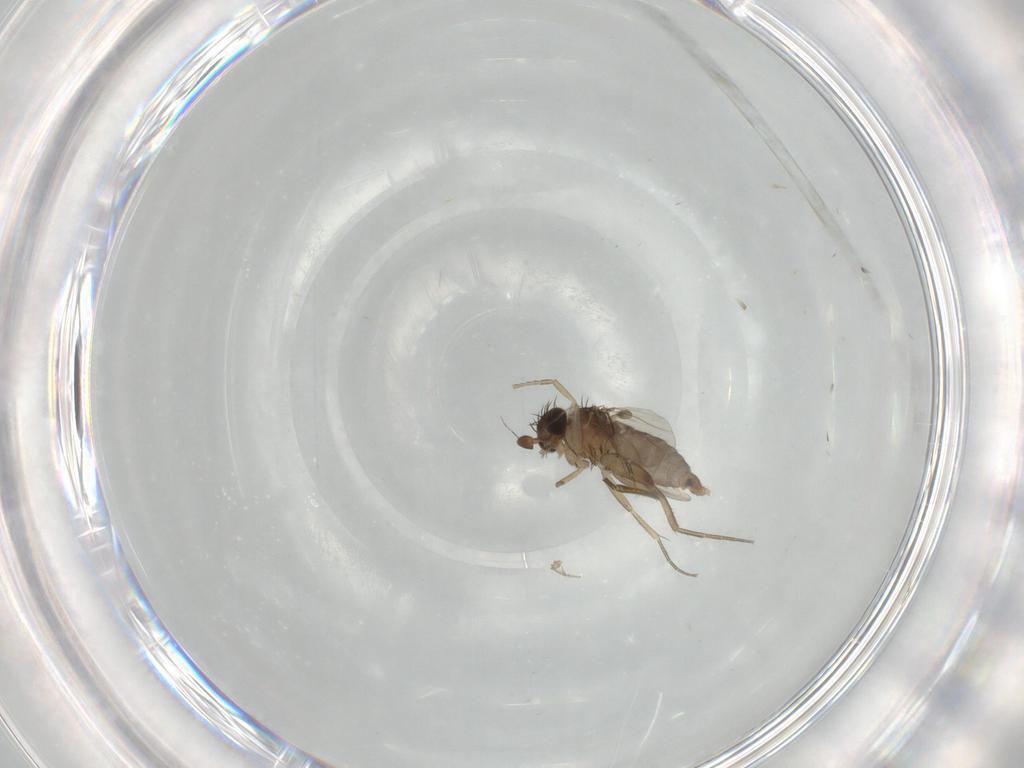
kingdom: Animalia
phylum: Arthropoda
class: Insecta
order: Diptera
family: Phoridae
